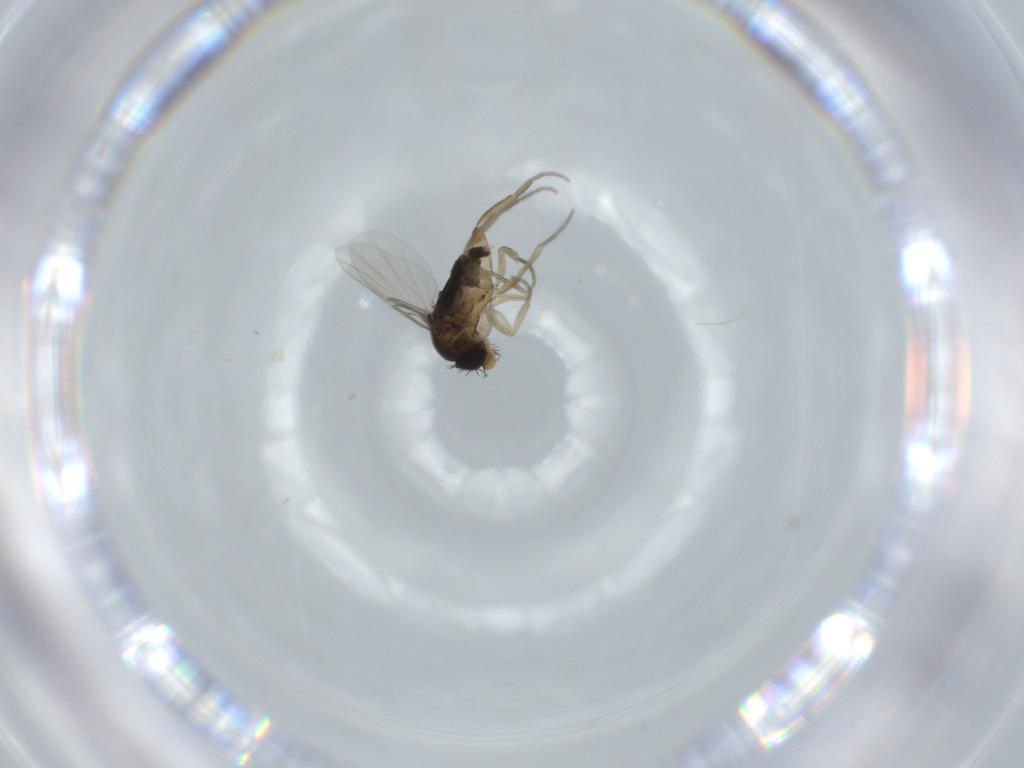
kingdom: Animalia
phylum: Arthropoda
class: Insecta
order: Diptera
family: Phoridae
